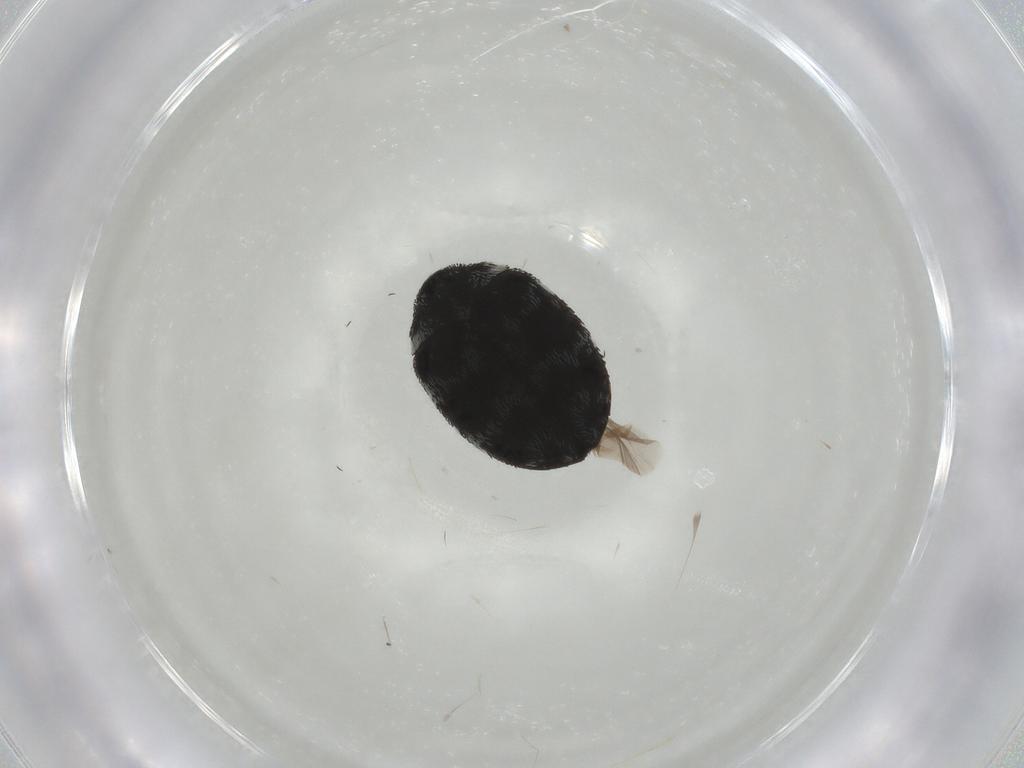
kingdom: Animalia
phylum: Arthropoda
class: Insecta
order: Coleoptera
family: Dermestidae
